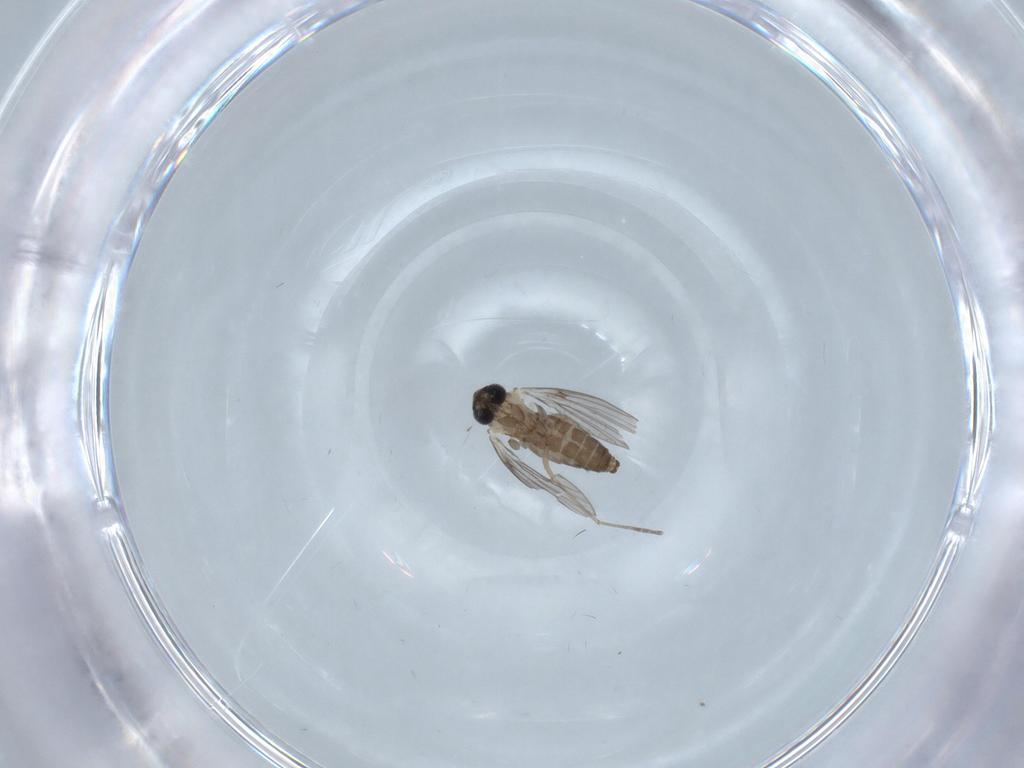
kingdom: Animalia
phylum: Arthropoda
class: Insecta
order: Diptera
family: Cecidomyiidae
